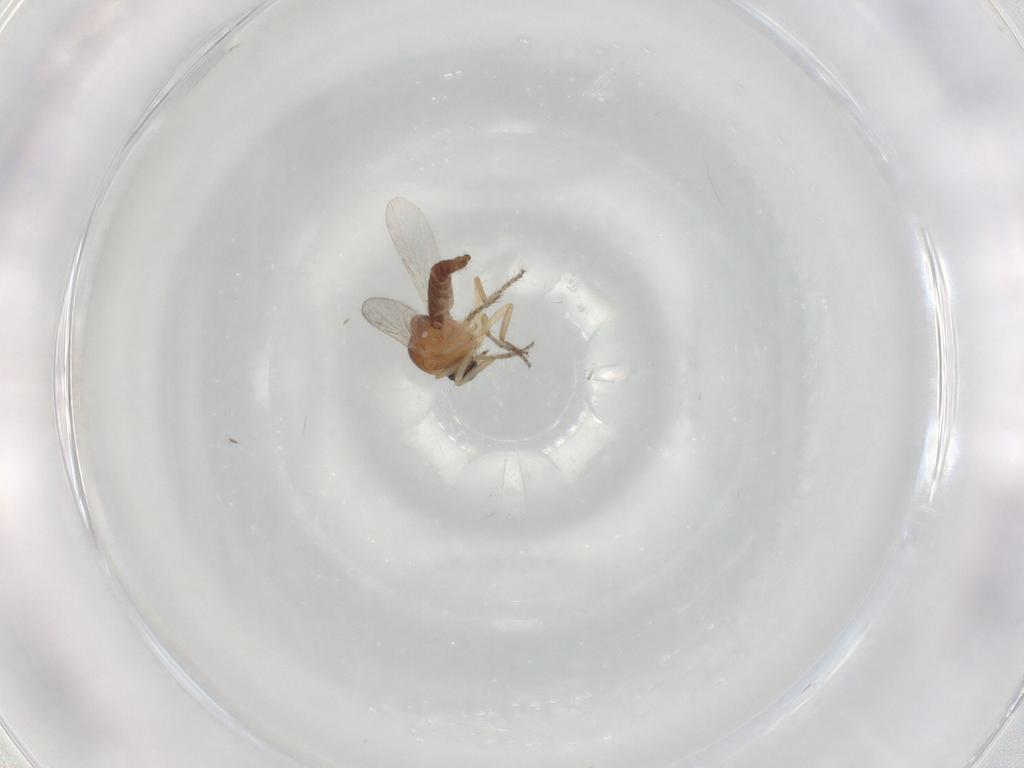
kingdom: Animalia
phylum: Arthropoda
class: Insecta
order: Diptera
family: Ceratopogonidae
